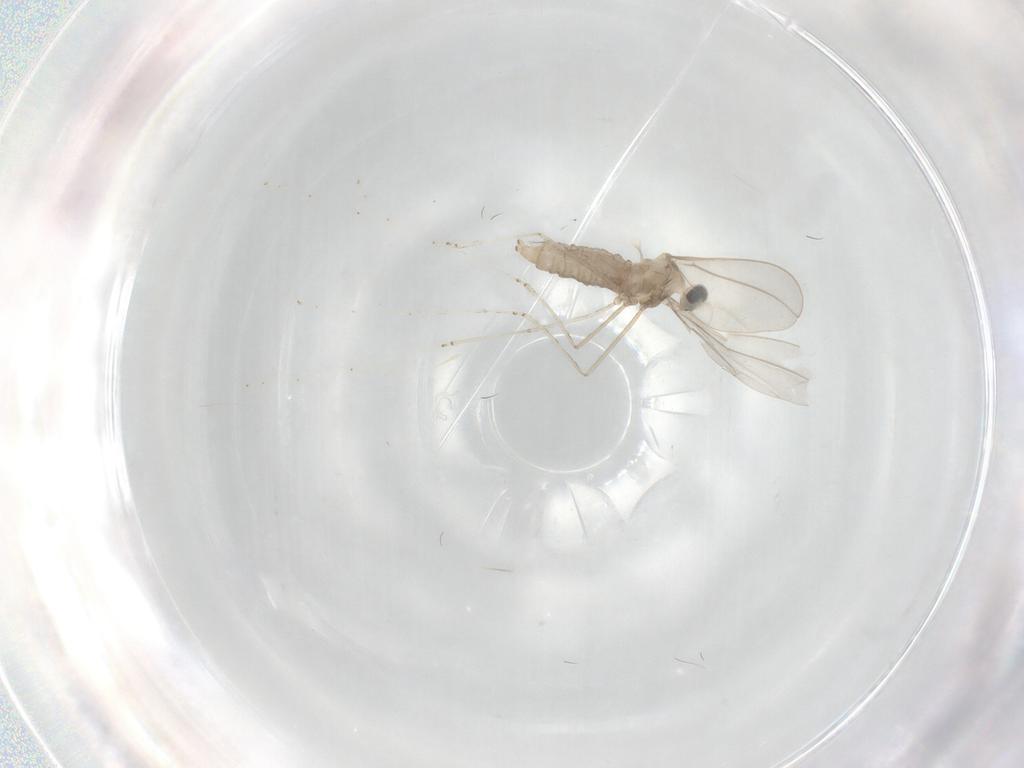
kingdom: Animalia
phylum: Arthropoda
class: Insecta
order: Diptera
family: Cecidomyiidae
